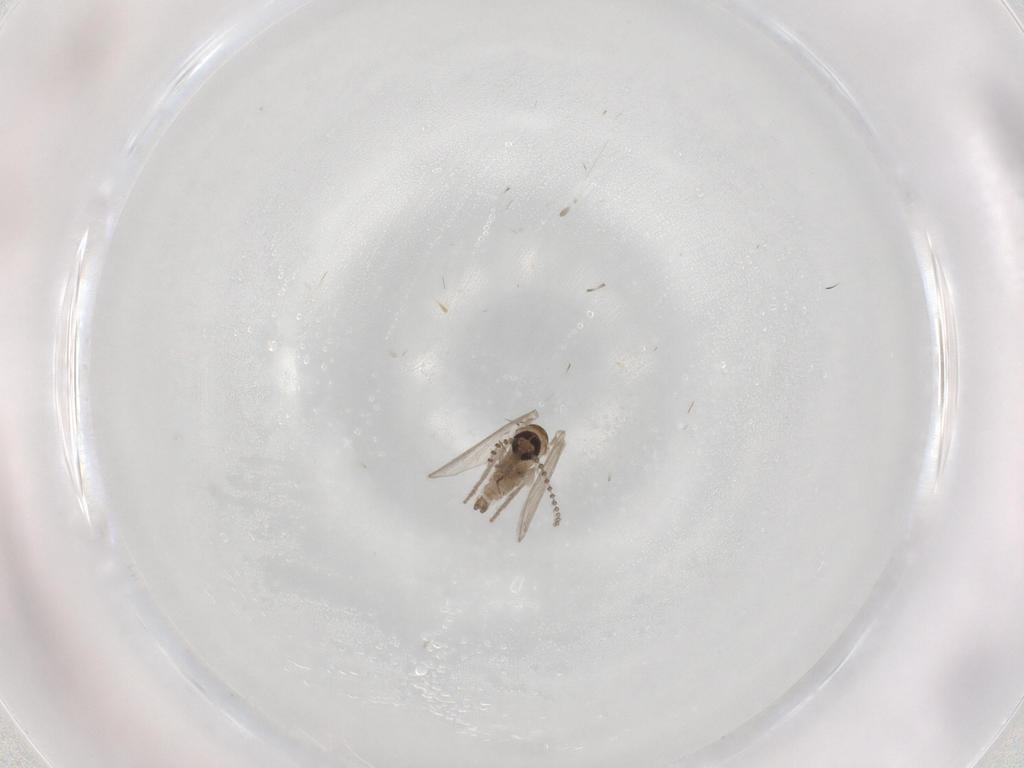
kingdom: Animalia
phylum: Arthropoda
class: Insecta
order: Diptera
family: Psychodidae
